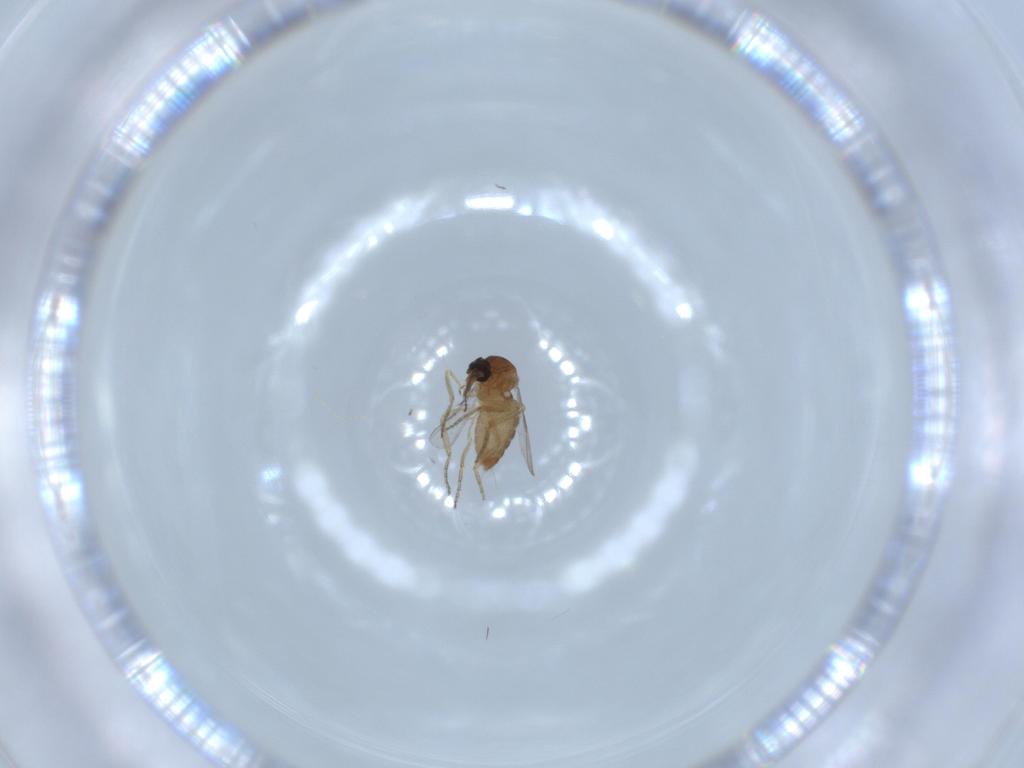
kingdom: Animalia
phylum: Arthropoda
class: Insecta
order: Diptera
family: Ceratopogonidae
